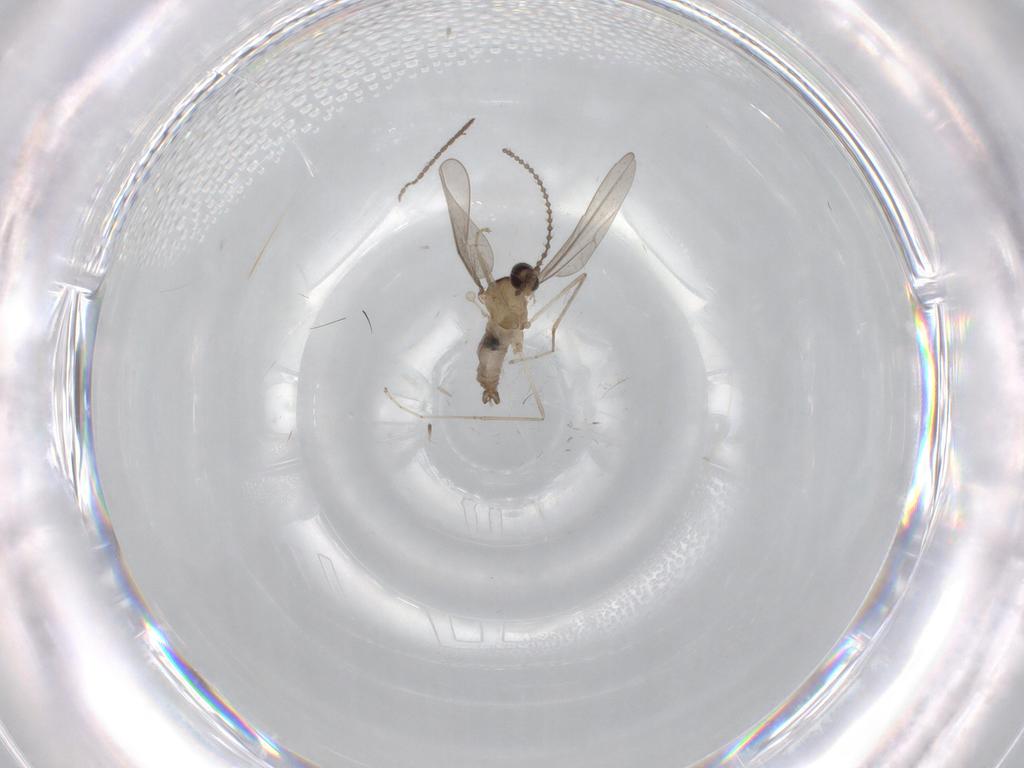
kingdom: Animalia
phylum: Arthropoda
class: Insecta
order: Diptera
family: Cecidomyiidae
